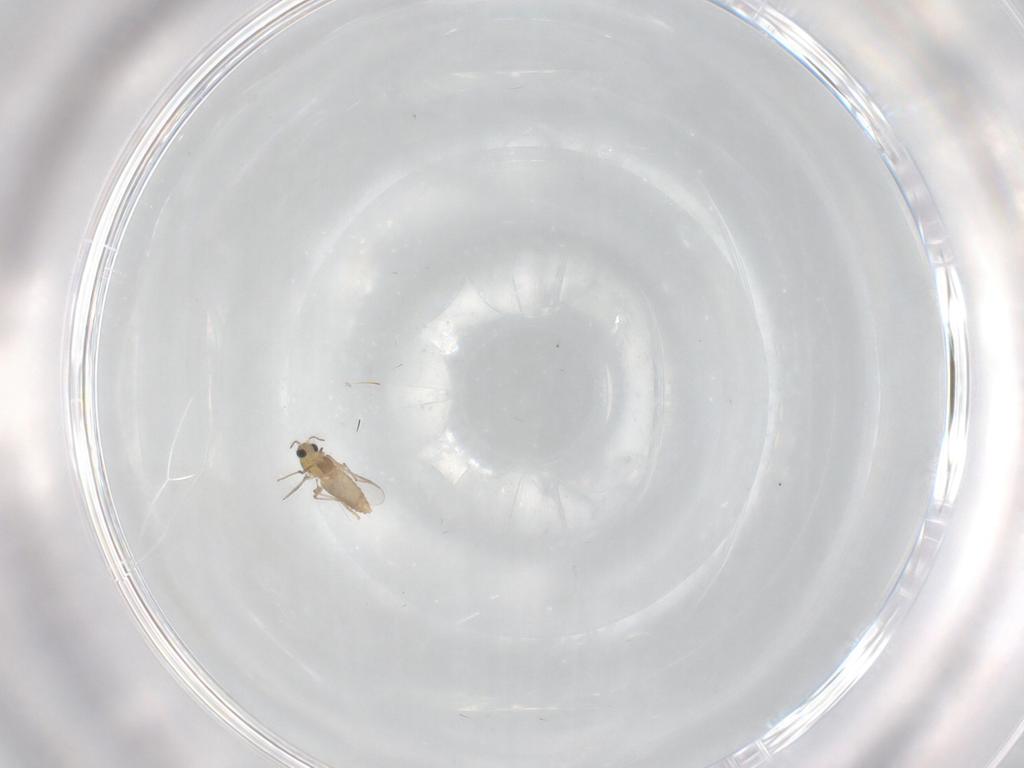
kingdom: Animalia
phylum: Arthropoda
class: Insecta
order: Diptera
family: Chironomidae
